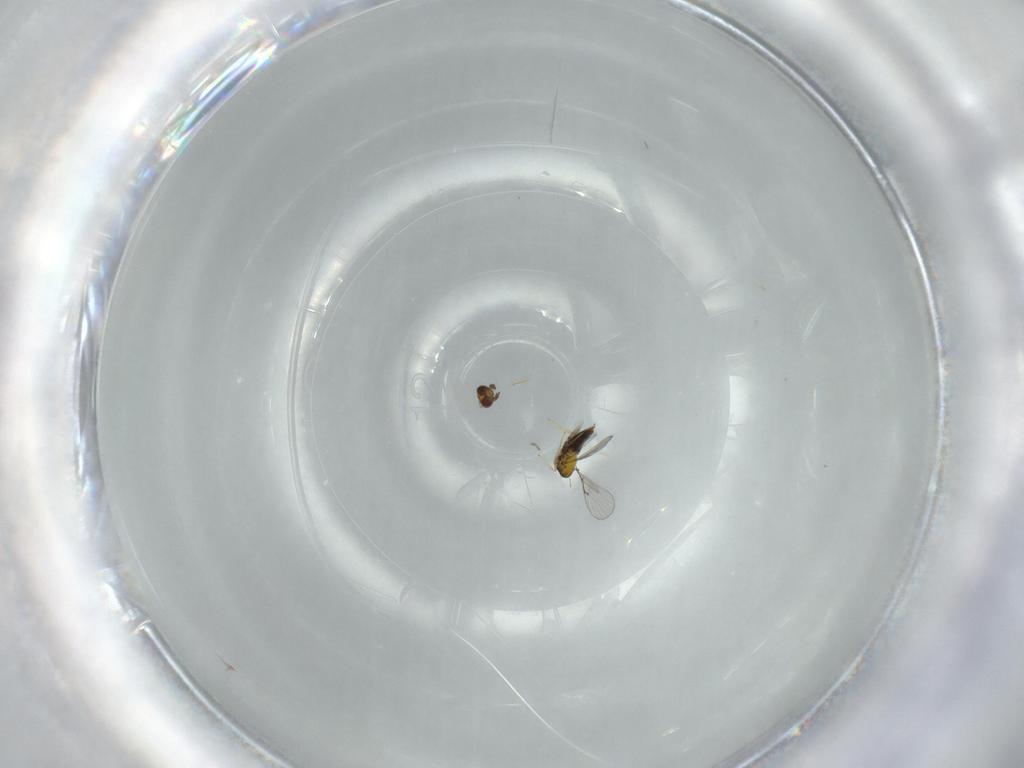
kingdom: Animalia
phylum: Arthropoda
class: Insecta
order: Hymenoptera
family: Trichogrammatidae
